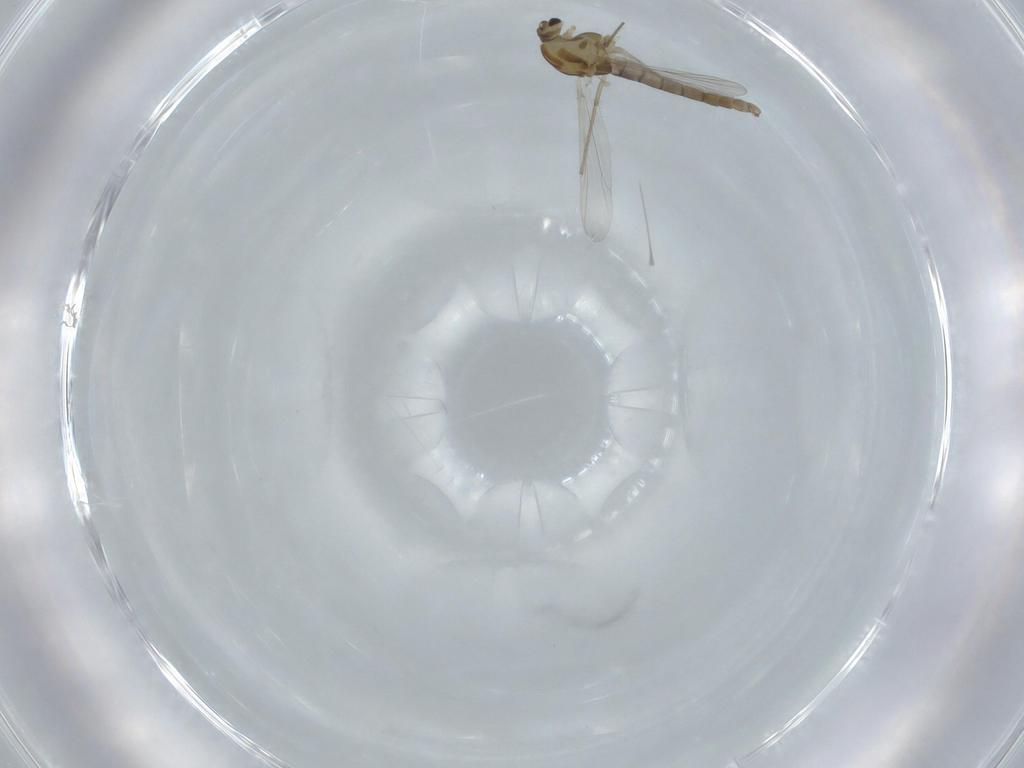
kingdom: Animalia
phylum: Arthropoda
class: Insecta
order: Diptera
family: Chironomidae
